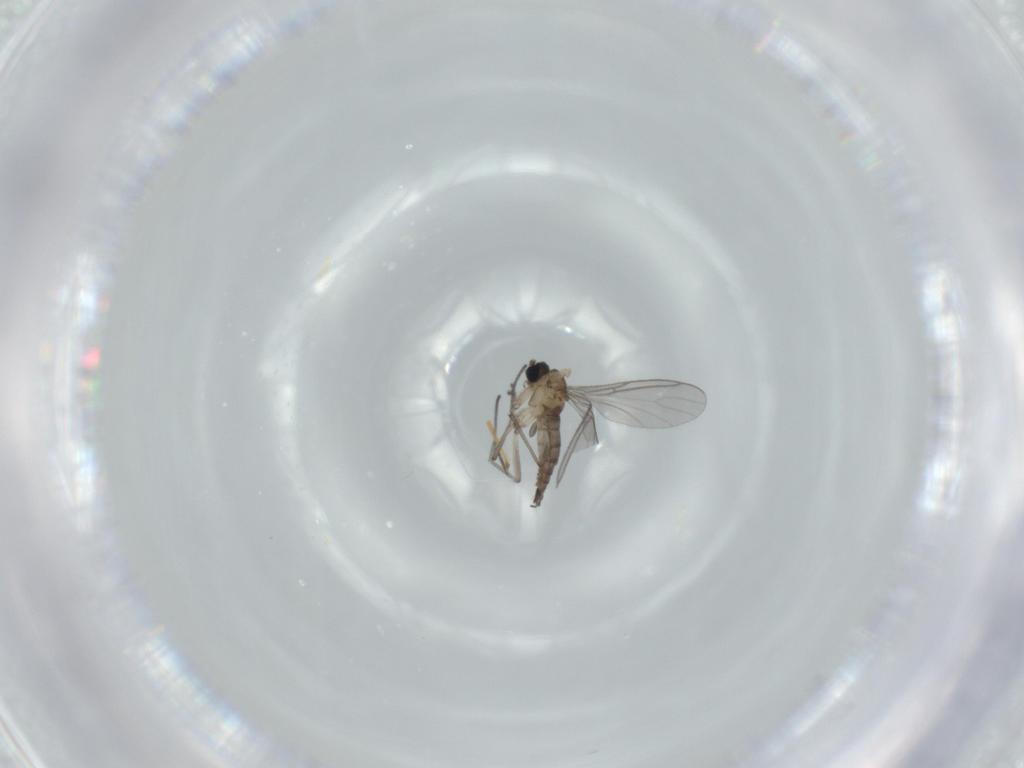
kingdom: Animalia
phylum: Arthropoda
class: Insecta
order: Diptera
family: Sciaridae
